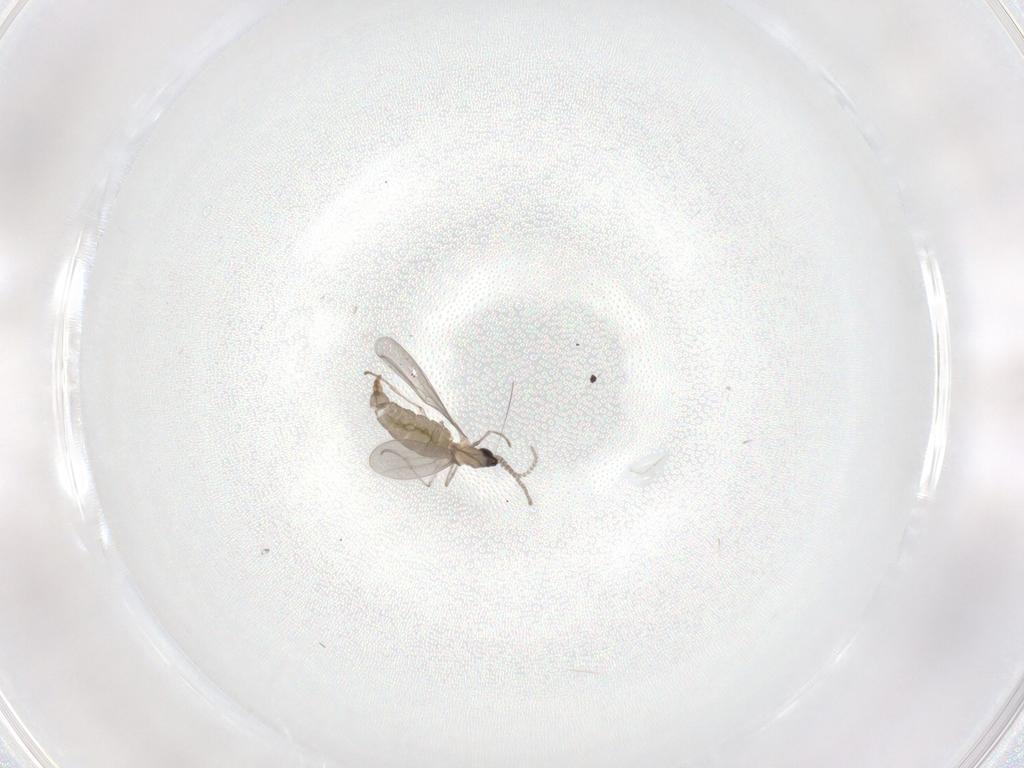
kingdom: Animalia
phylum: Arthropoda
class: Insecta
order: Diptera
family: Cecidomyiidae
